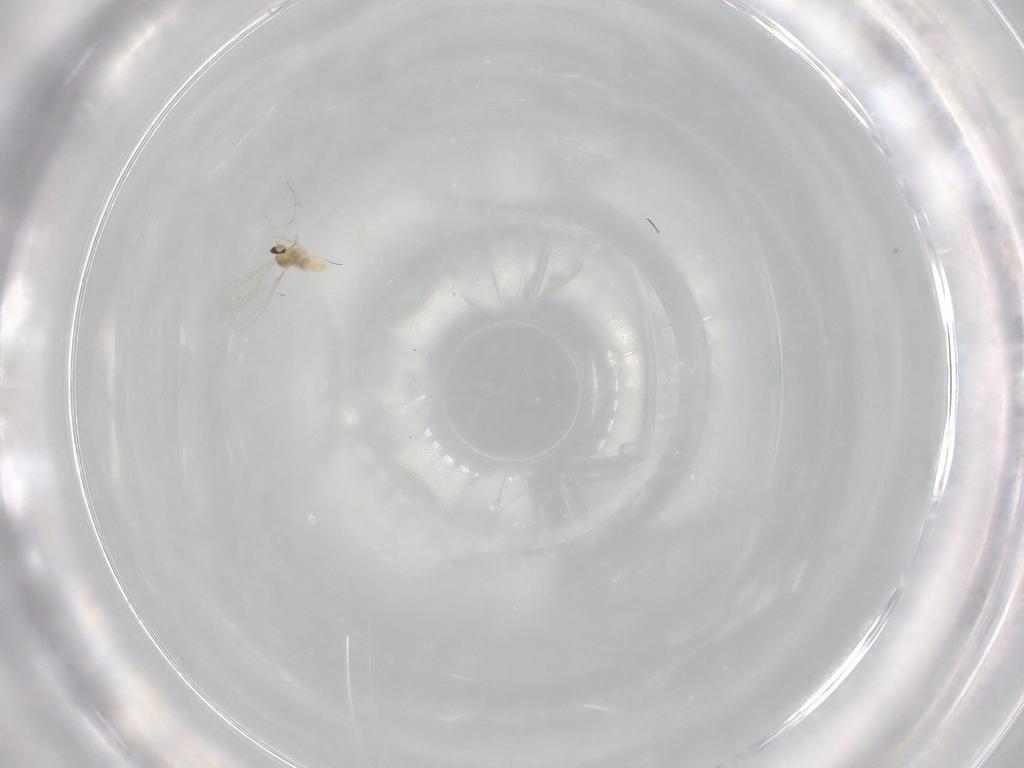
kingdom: Animalia
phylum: Arthropoda
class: Insecta
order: Diptera
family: Cecidomyiidae
